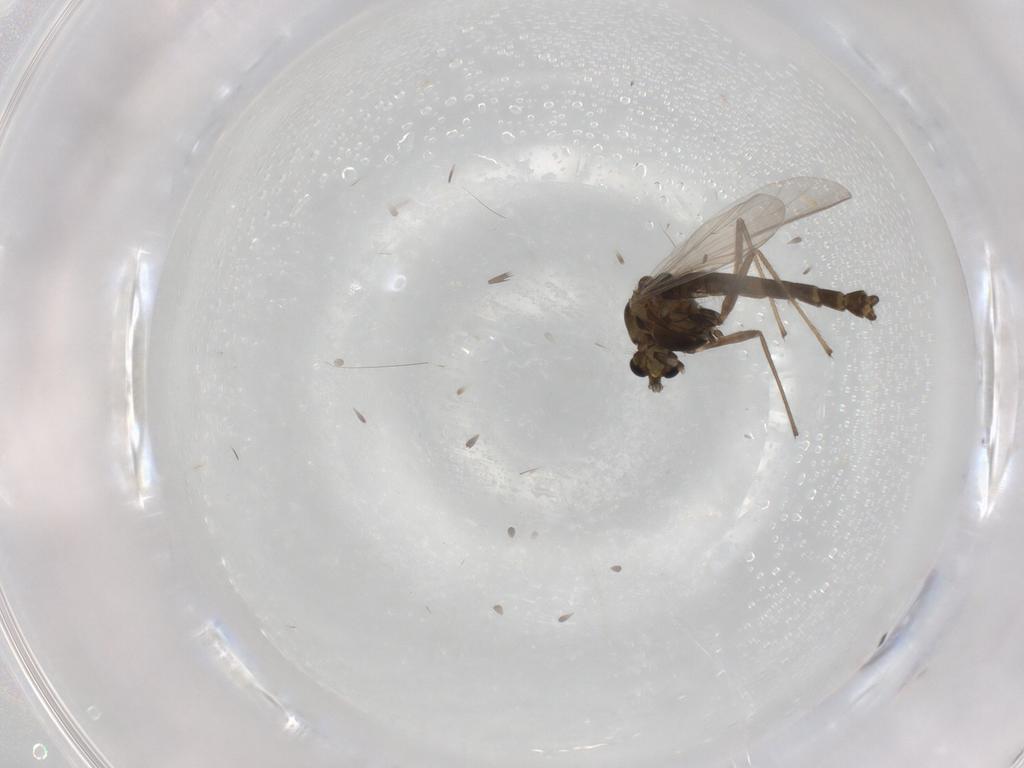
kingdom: Animalia
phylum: Arthropoda
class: Insecta
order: Diptera
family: Chironomidae
